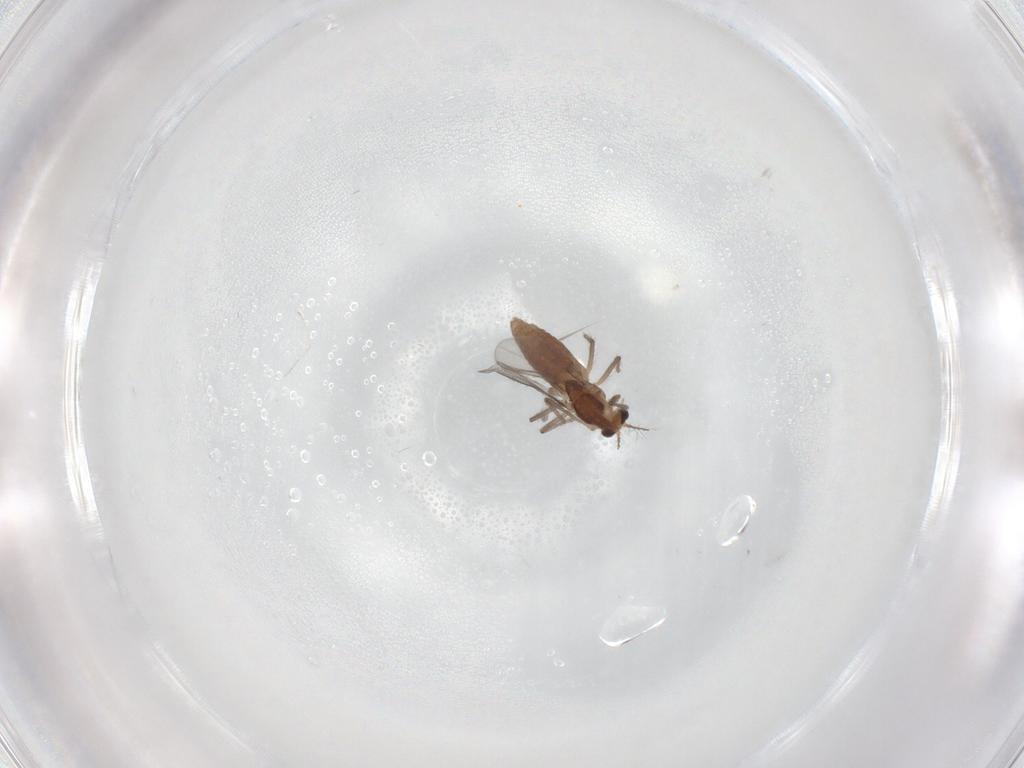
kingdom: Animalia
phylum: Arthropoda
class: Insecta
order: Diptera
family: Chironomidae
